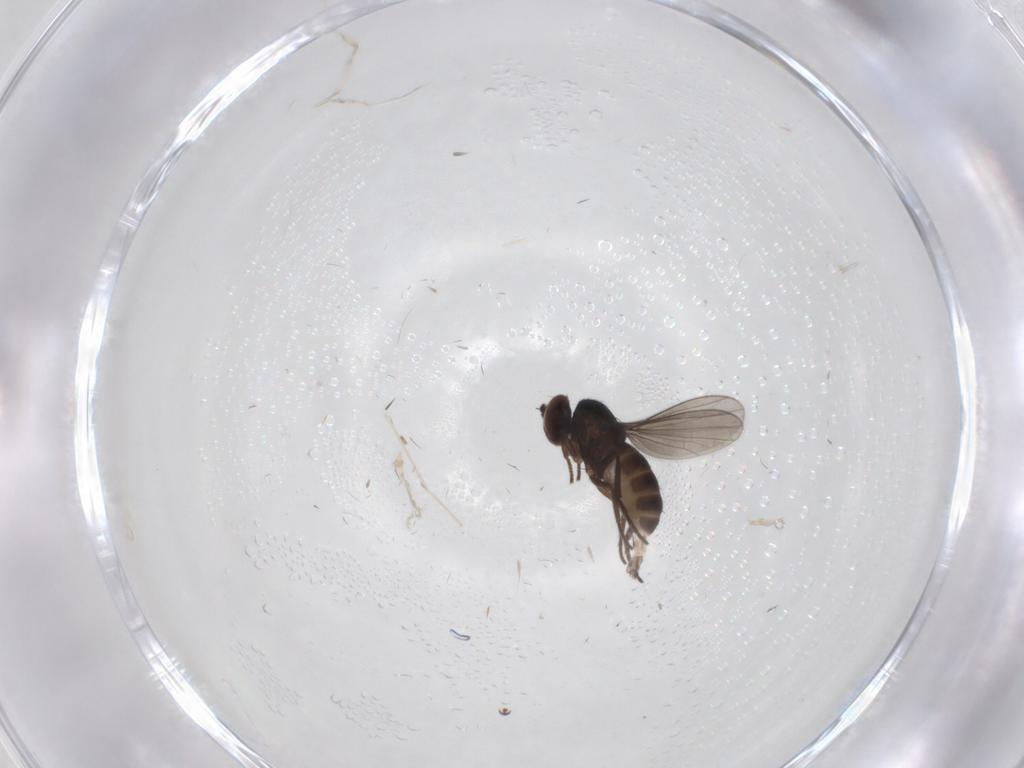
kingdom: Animalia
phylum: Arthropoda
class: Insecta
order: Diptera
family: Dolichopodidae
